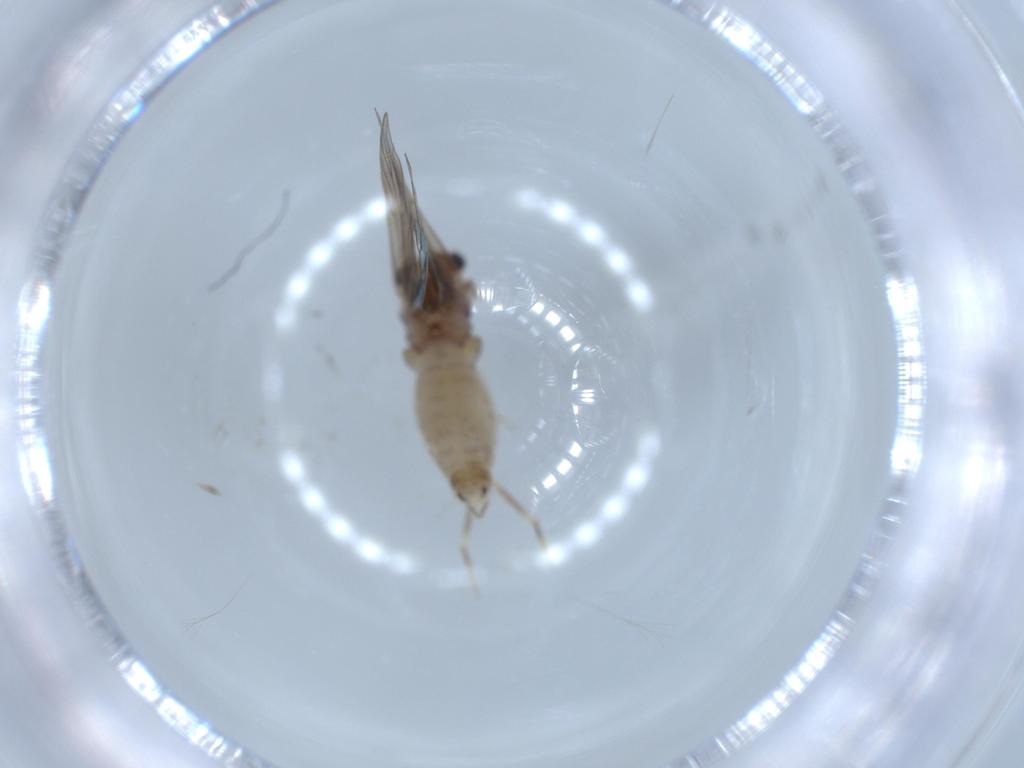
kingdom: Animalia
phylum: Arthropoda
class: Insecta
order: Psocodea
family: Lepidopsocidae
